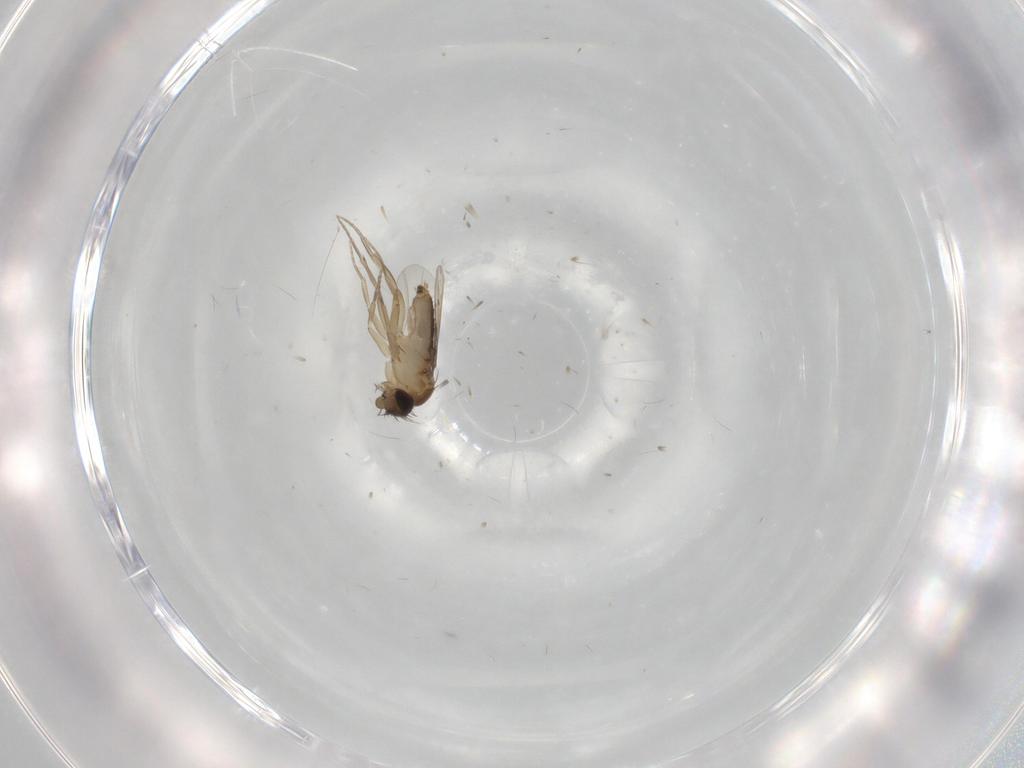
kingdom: Animalia
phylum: Arthropoda
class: Insecta
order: Diptera
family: Phoridae
